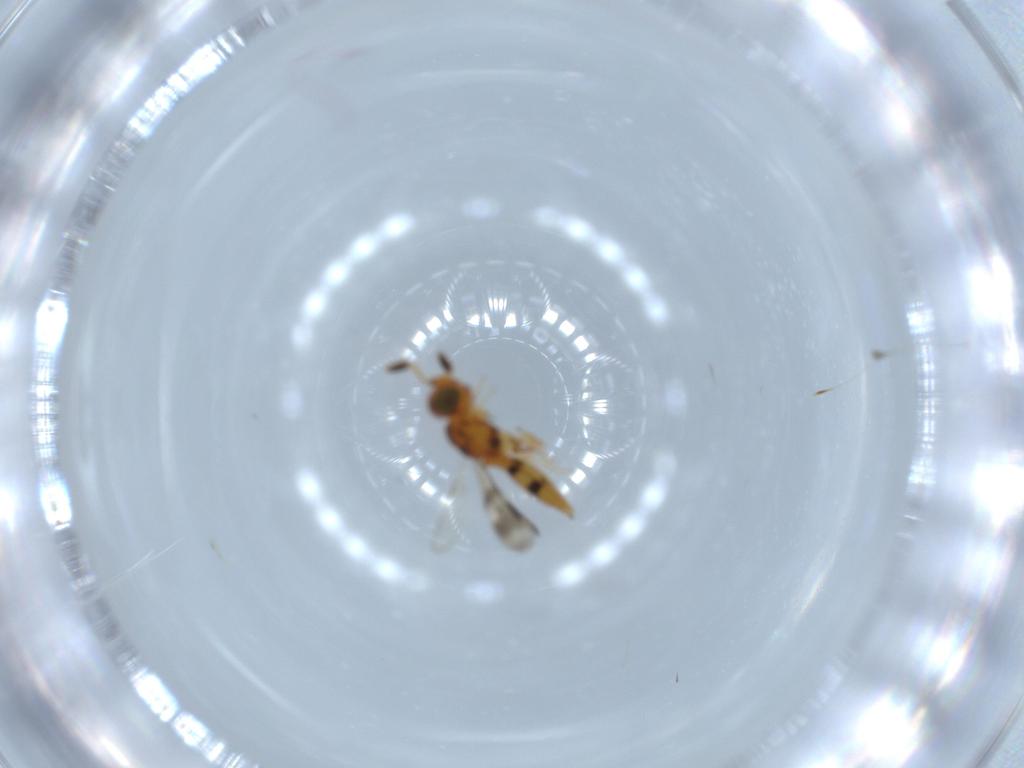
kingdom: Animalia
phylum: Arthropoda
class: Insecta
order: Hymenoptera
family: Scelionidae
